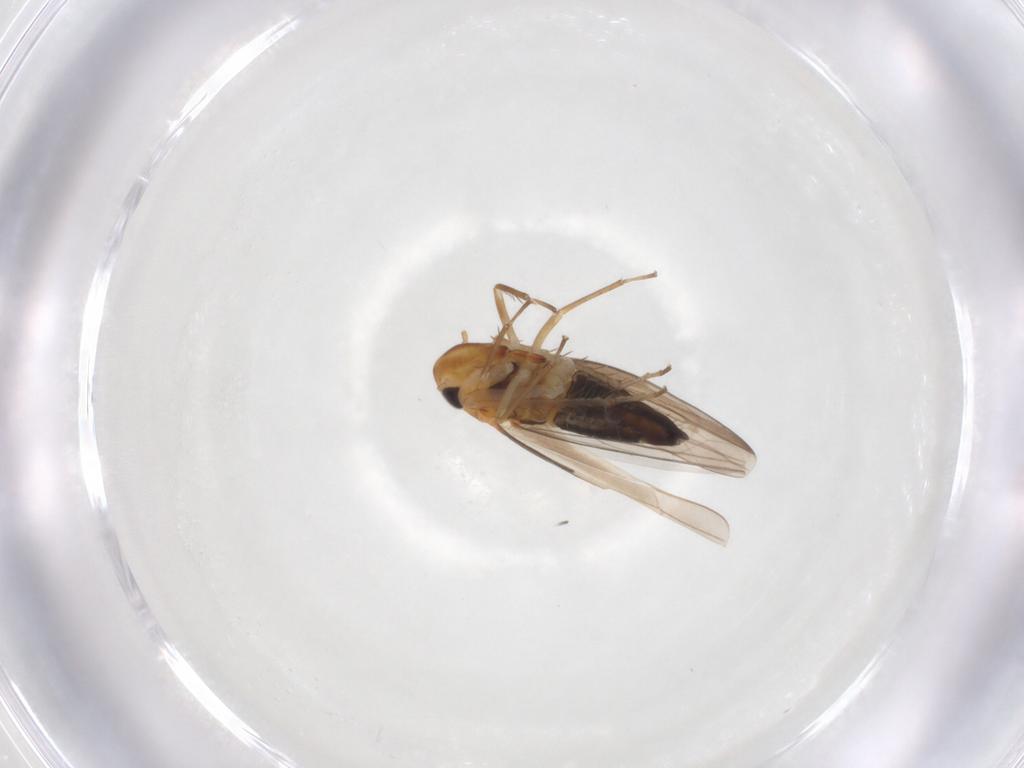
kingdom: Animalia
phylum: Arthropoda
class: Insecta
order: Hemiptera
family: Cicadellidae
